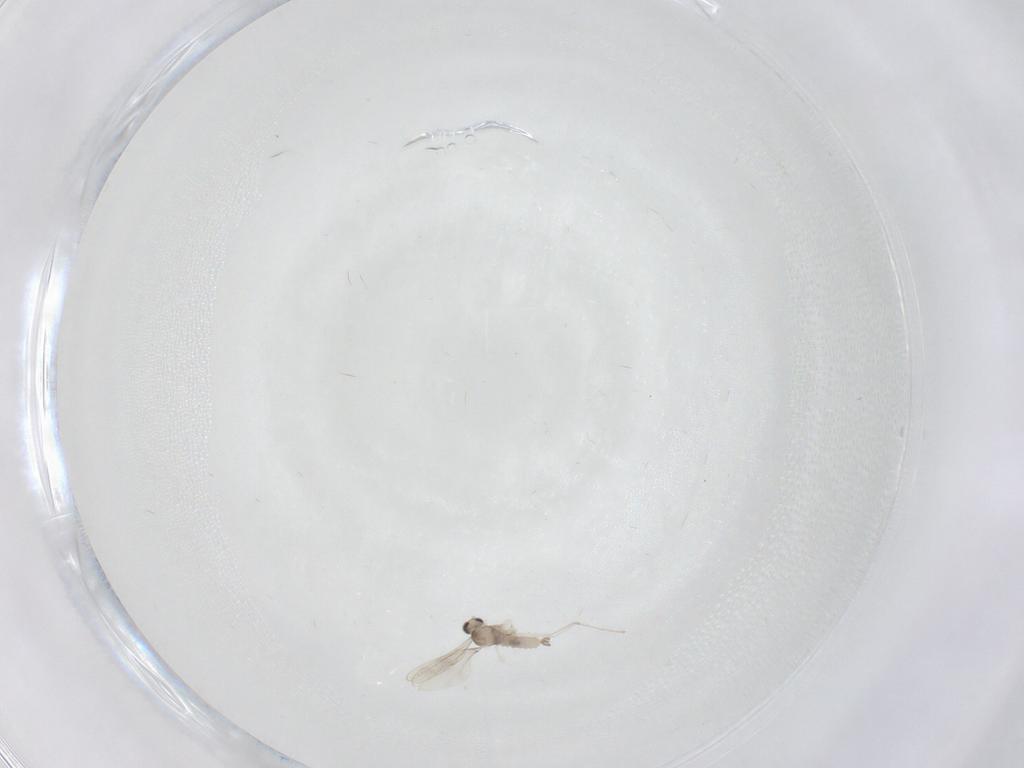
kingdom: Animalia
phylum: Arthropoda
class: Insecta
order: Diptera
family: Cecidomyiidae
